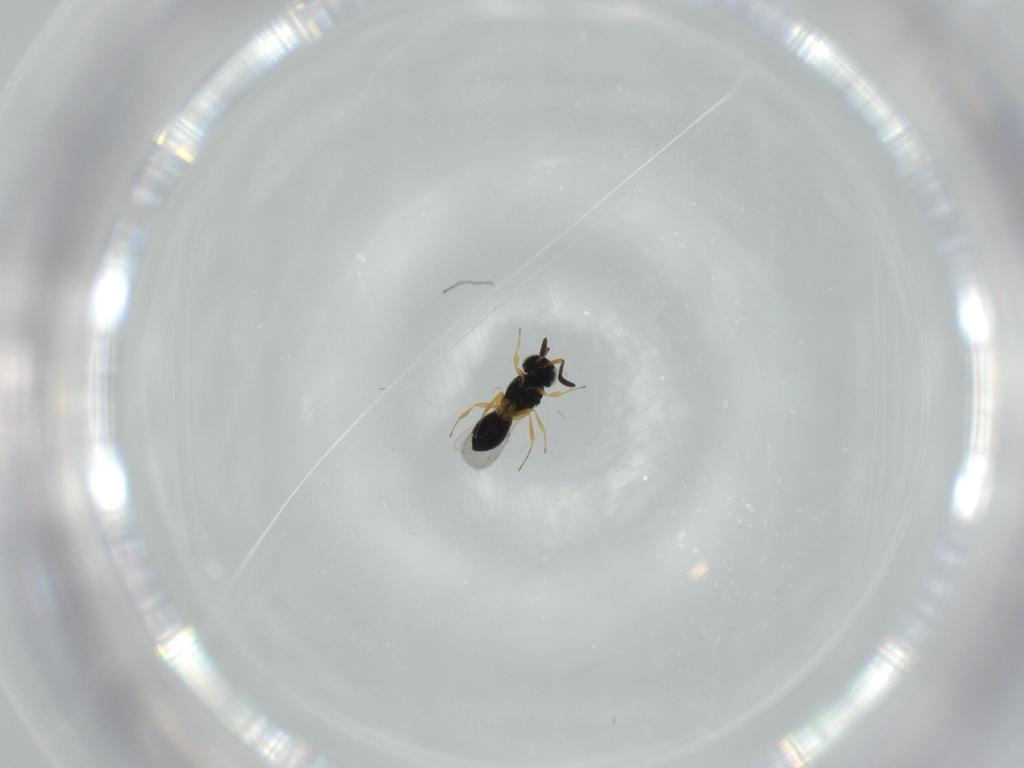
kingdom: Animalia
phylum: Arthropoda
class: Insecta
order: Hymenoptera
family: Scelionidae
